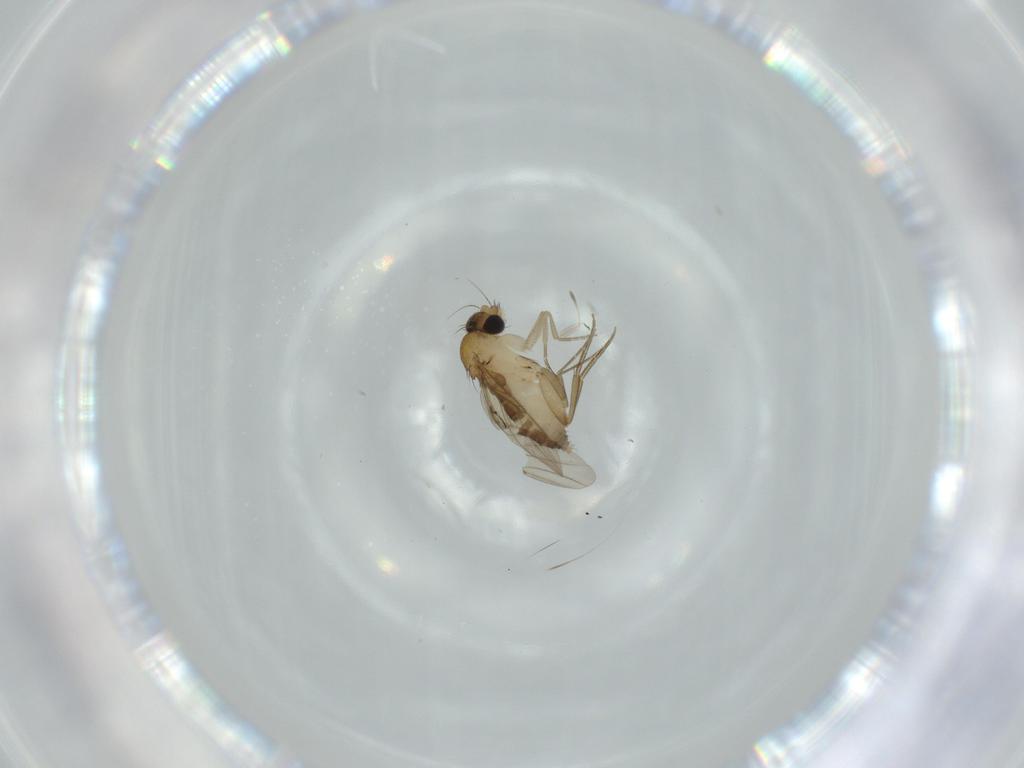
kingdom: Animalia
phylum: Arthropoda
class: Insecta
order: Diptera
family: Phoridae
